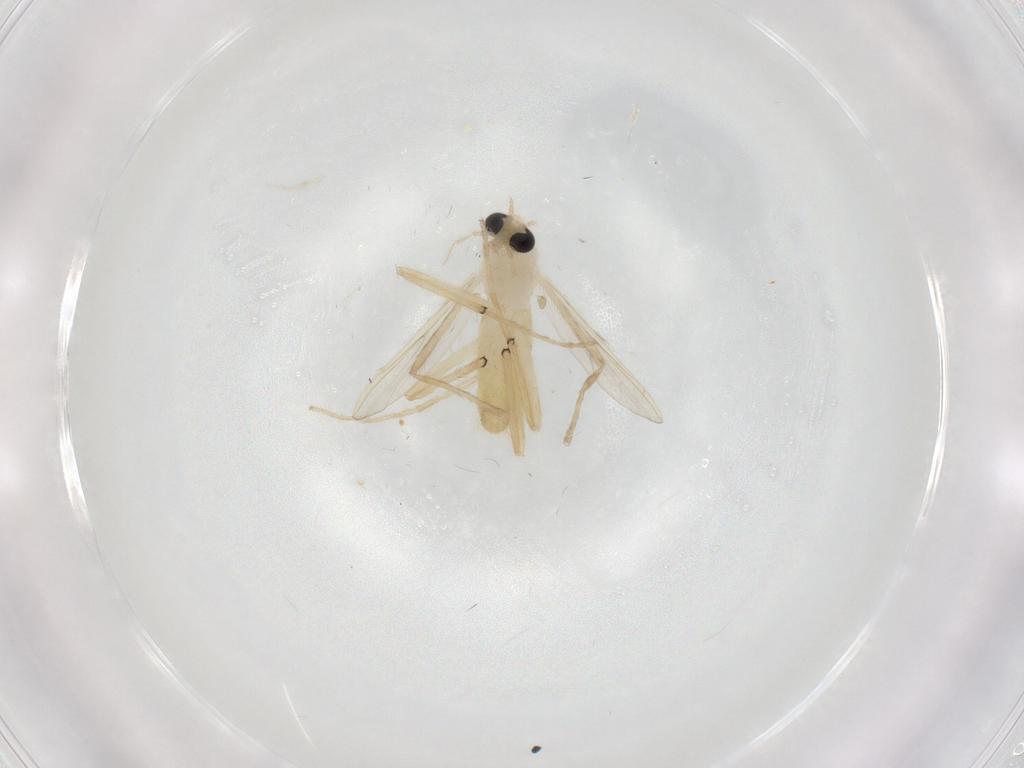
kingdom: Animalia
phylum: Arthropoda
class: Insecta
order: Diptera
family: Chironomidae
